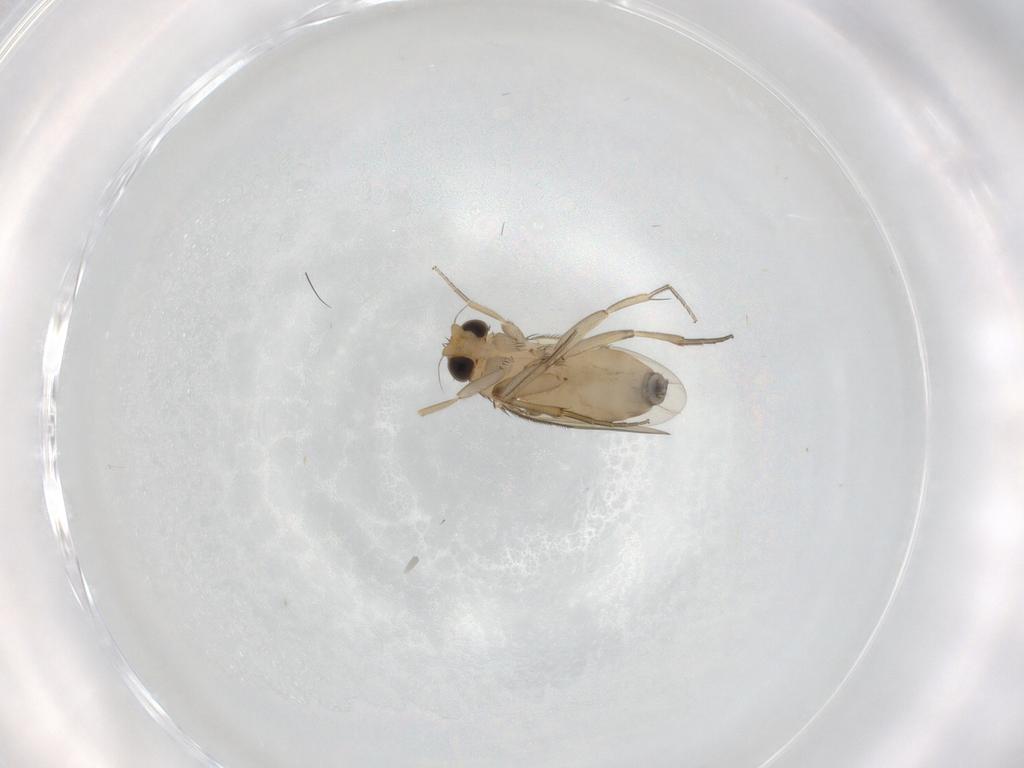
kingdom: Animalia
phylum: Arthropoda
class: Insecta
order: Diptera
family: Phoridae
